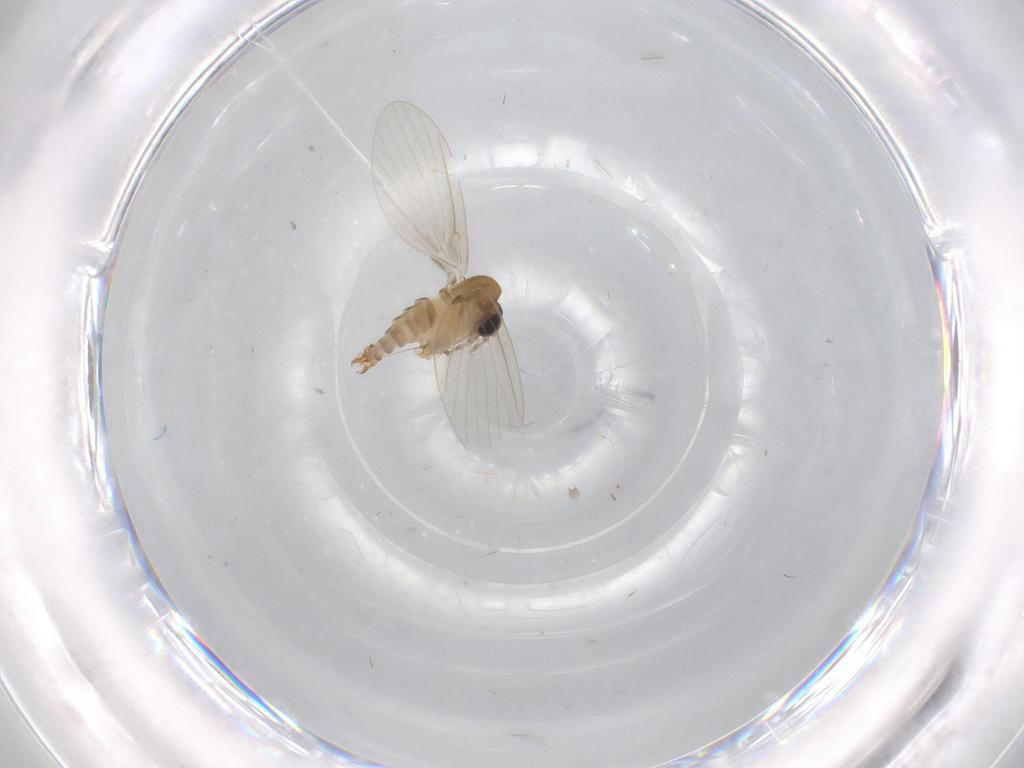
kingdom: Animalia
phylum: Arthropoda
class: Insecta
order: Diptera
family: Psychodidae
